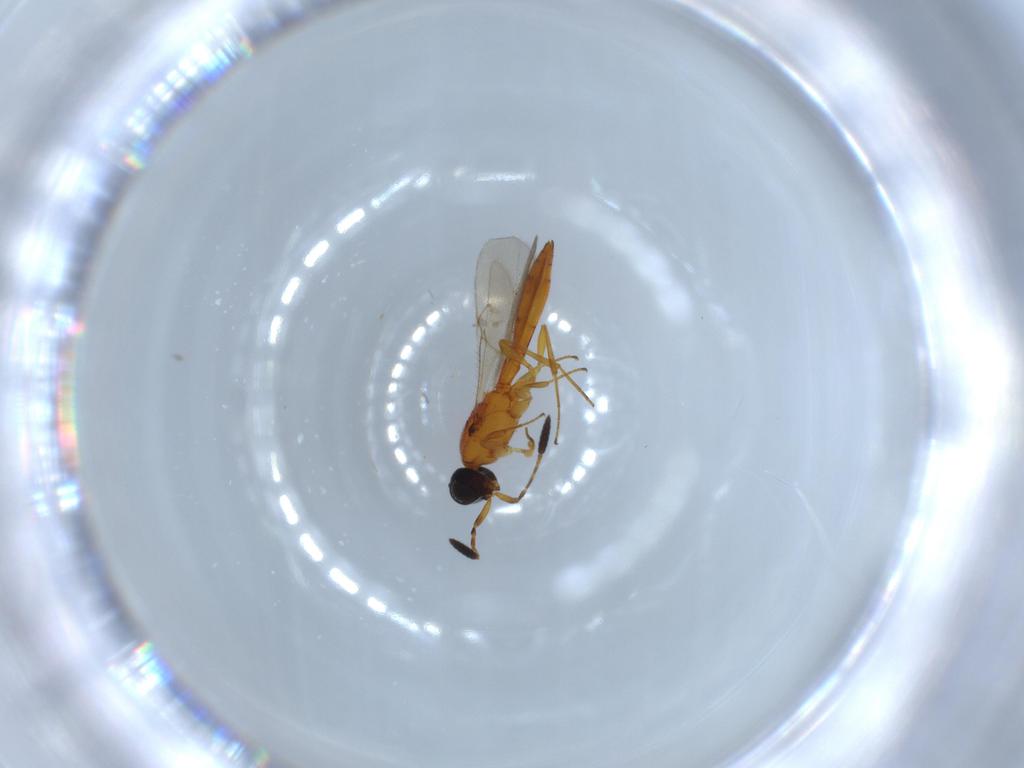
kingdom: Animalia
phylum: Arthropoda
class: Insecta
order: Hymenoptera
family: Scelionidae
